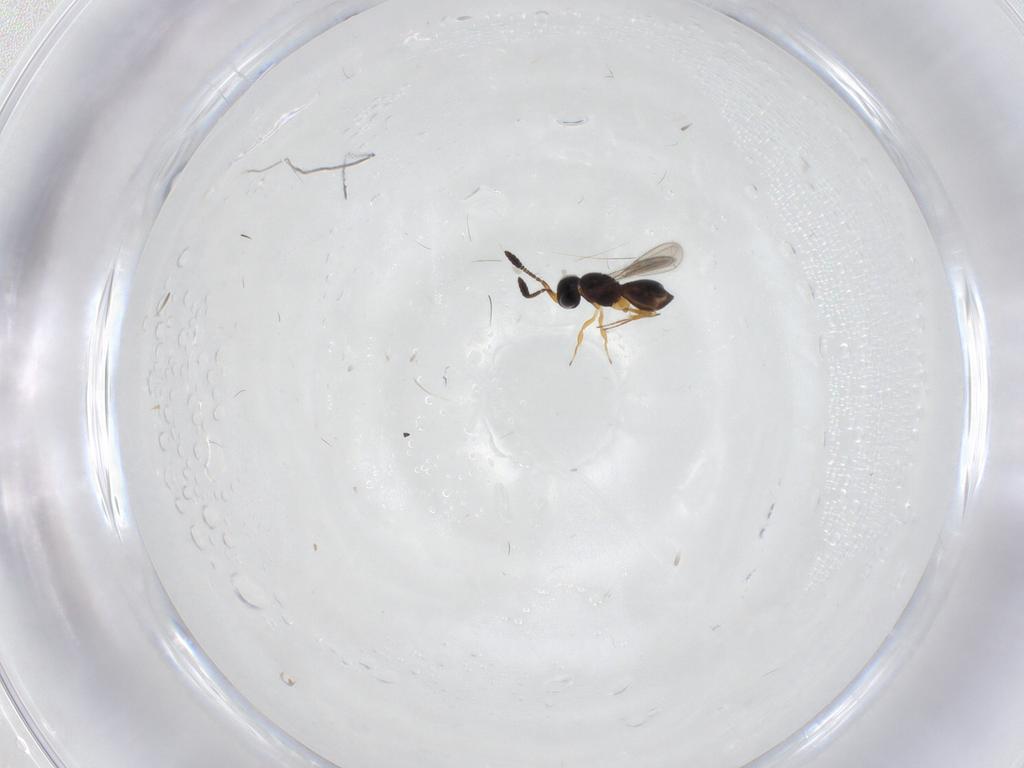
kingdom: Animalia
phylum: Arthropoda
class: Insecta
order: Hymenoptera
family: Scelionidae
